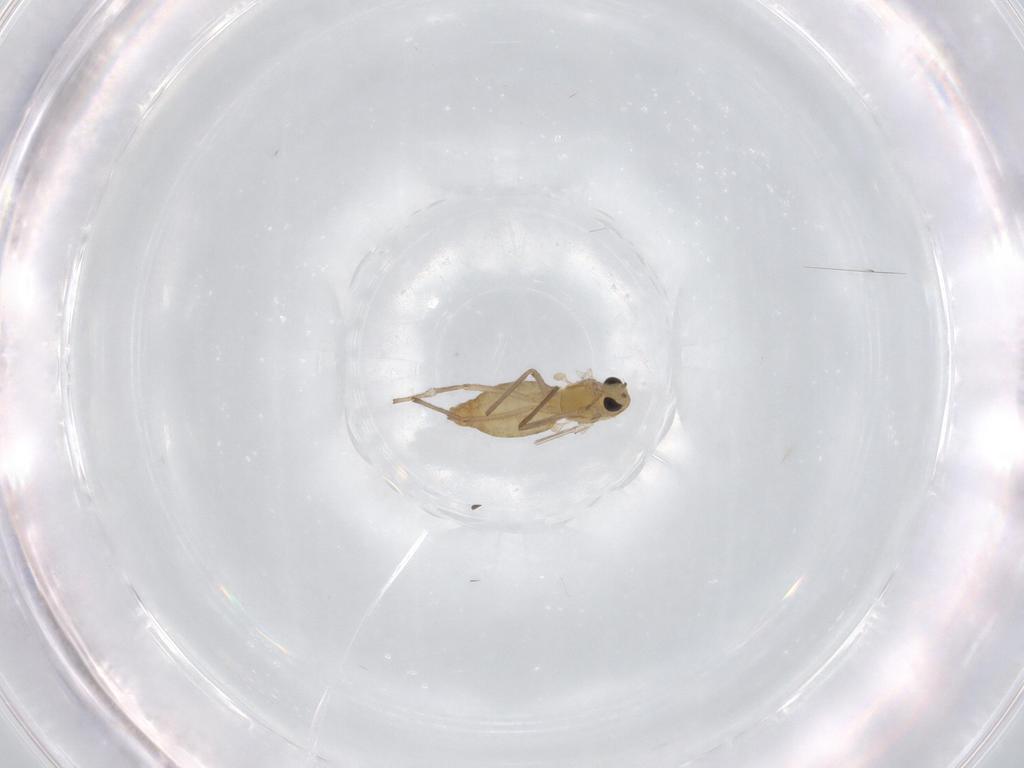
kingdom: Animalia
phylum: Arthropoda
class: Insecta
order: Diptera
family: Chironomidae
